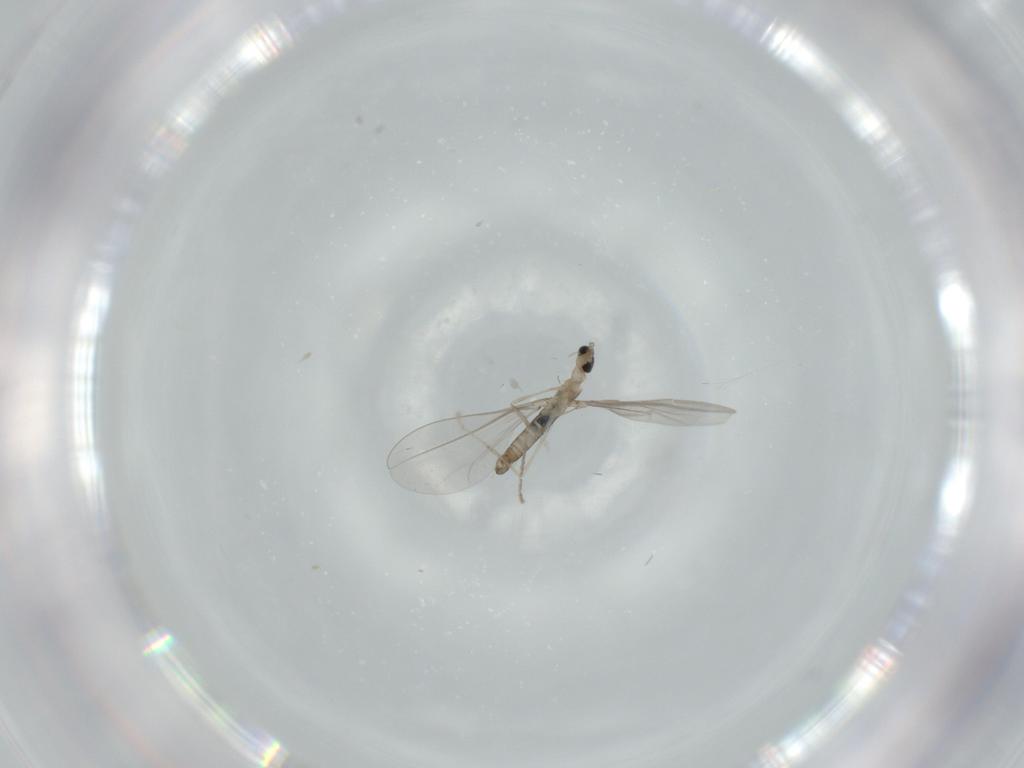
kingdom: Animalia
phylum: Arthropoda
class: Insecta
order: Diptera
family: Cecidomyiidae
